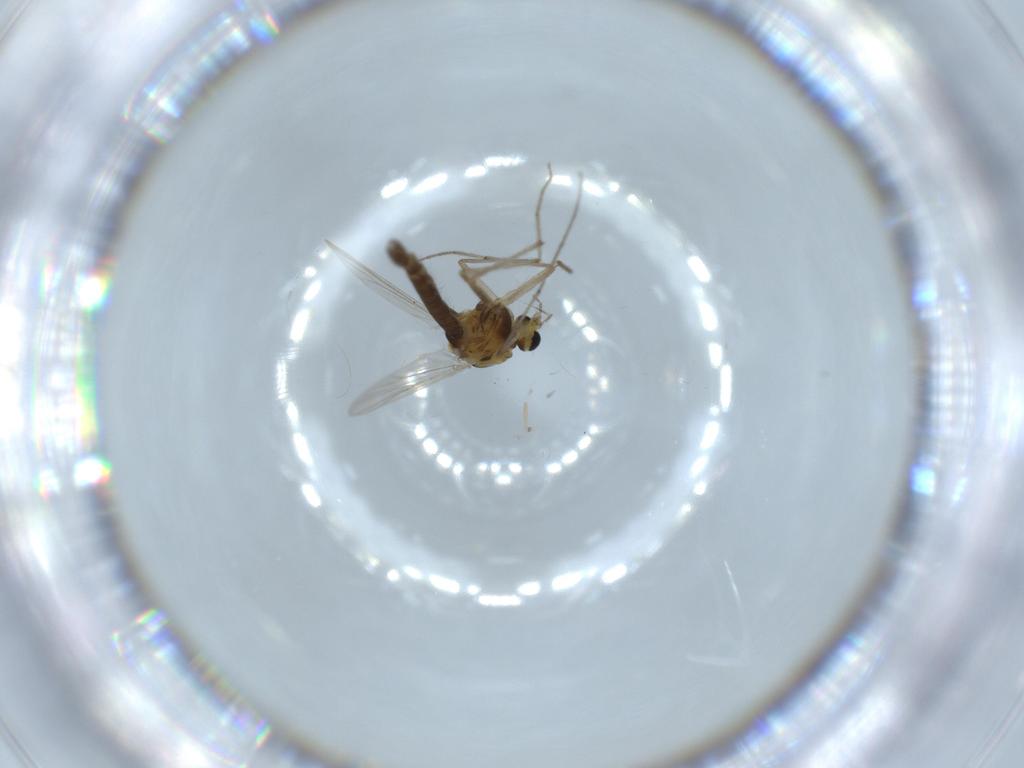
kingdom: Animalia
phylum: Arthropoda
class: Insecta
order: Diptera
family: Chironomidae
